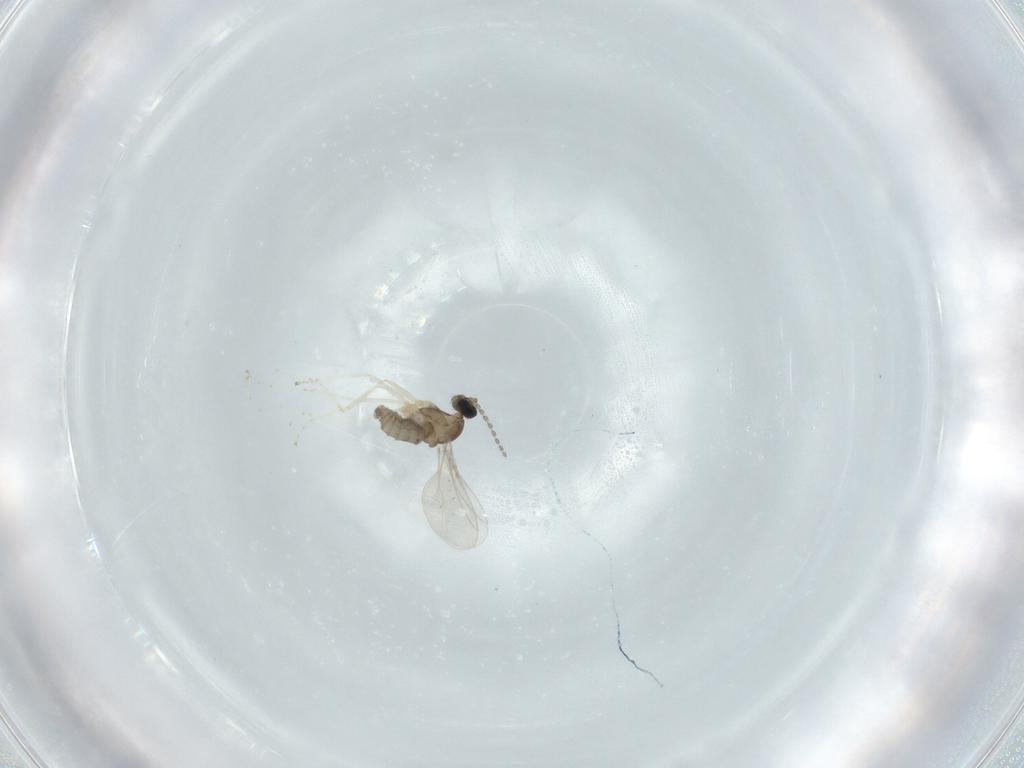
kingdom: Animalia
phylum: Arthropoda
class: Insecta
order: Diptera
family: Cecidomyiidae
